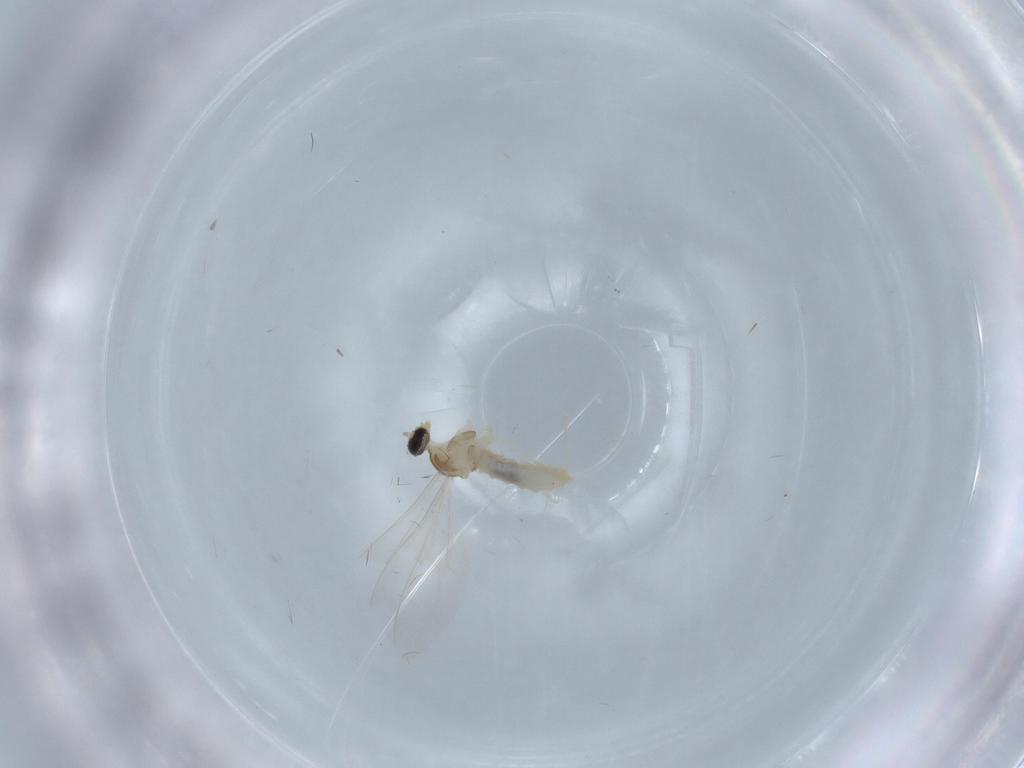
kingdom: Animalia
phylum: Arthropoda
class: Insecta
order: Diptera
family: Cecidomyiidae
